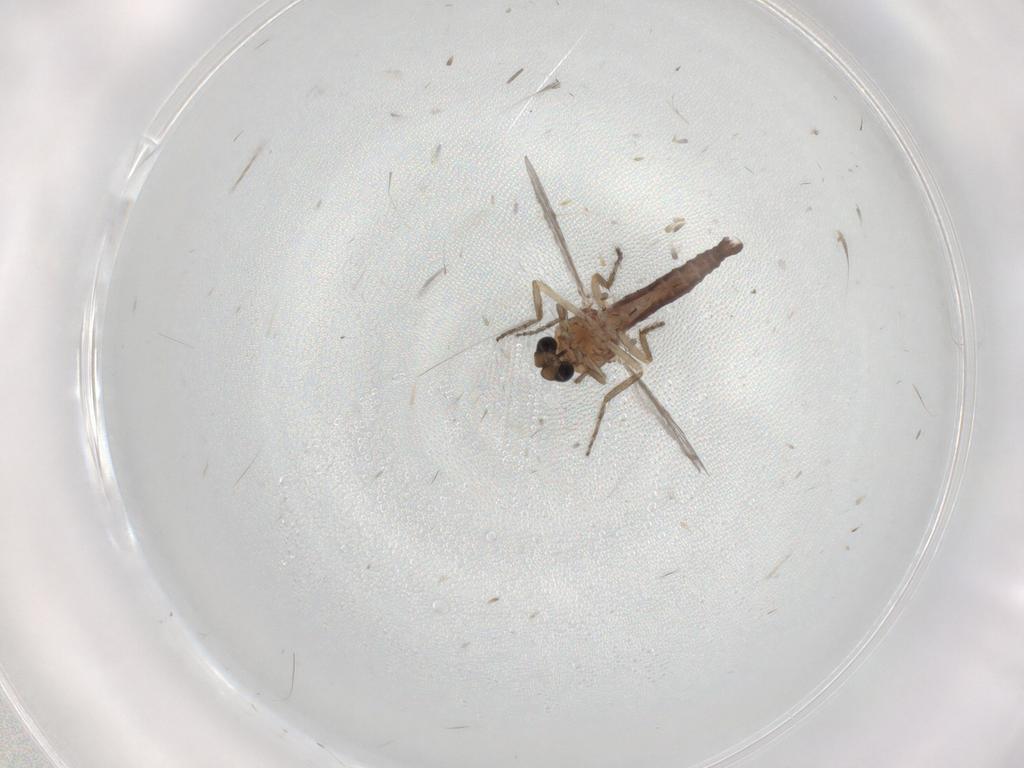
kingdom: Animalia
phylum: Arthropoda
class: Insecta
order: Diptera
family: Ceratopogonidae
